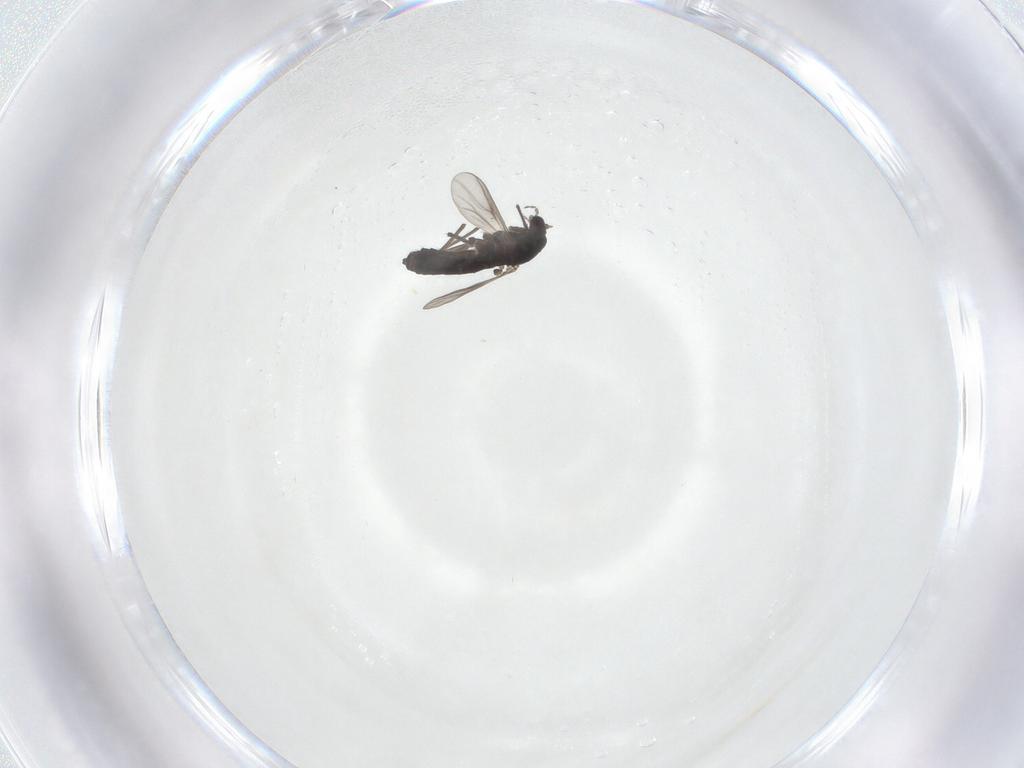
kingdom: Animalia
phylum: Arthropoda
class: Insecta
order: Diptera
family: Chironomidae
